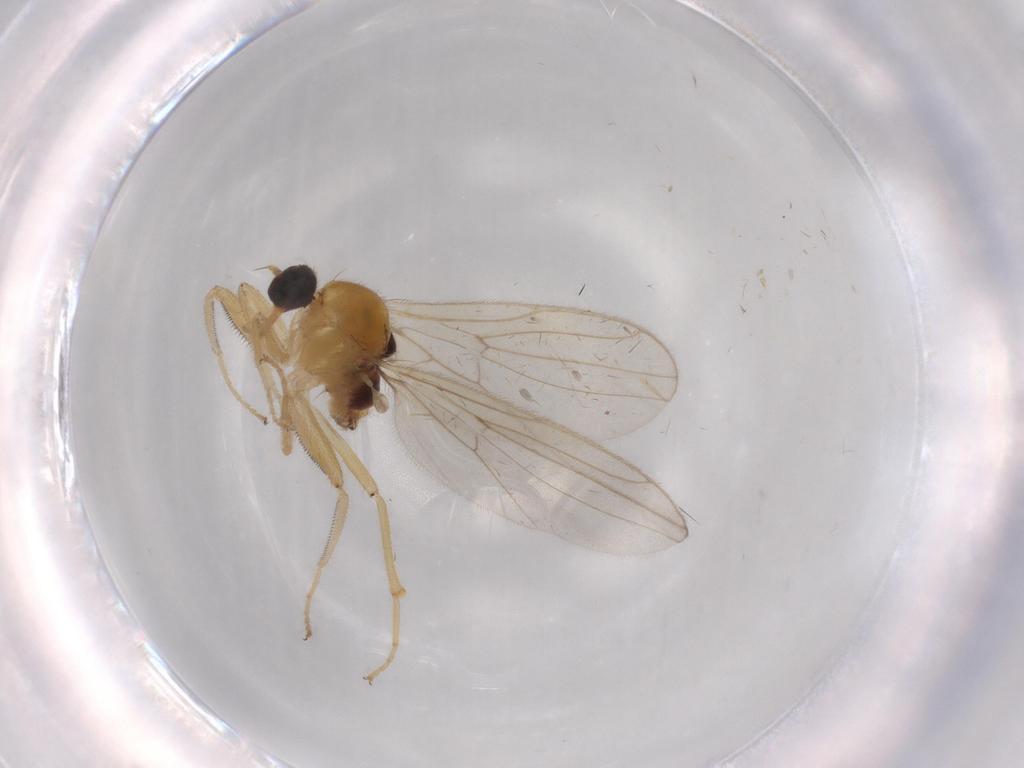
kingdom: Animalia
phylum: Arthropoda
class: Insecta
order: Diptera
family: Hybotidae
